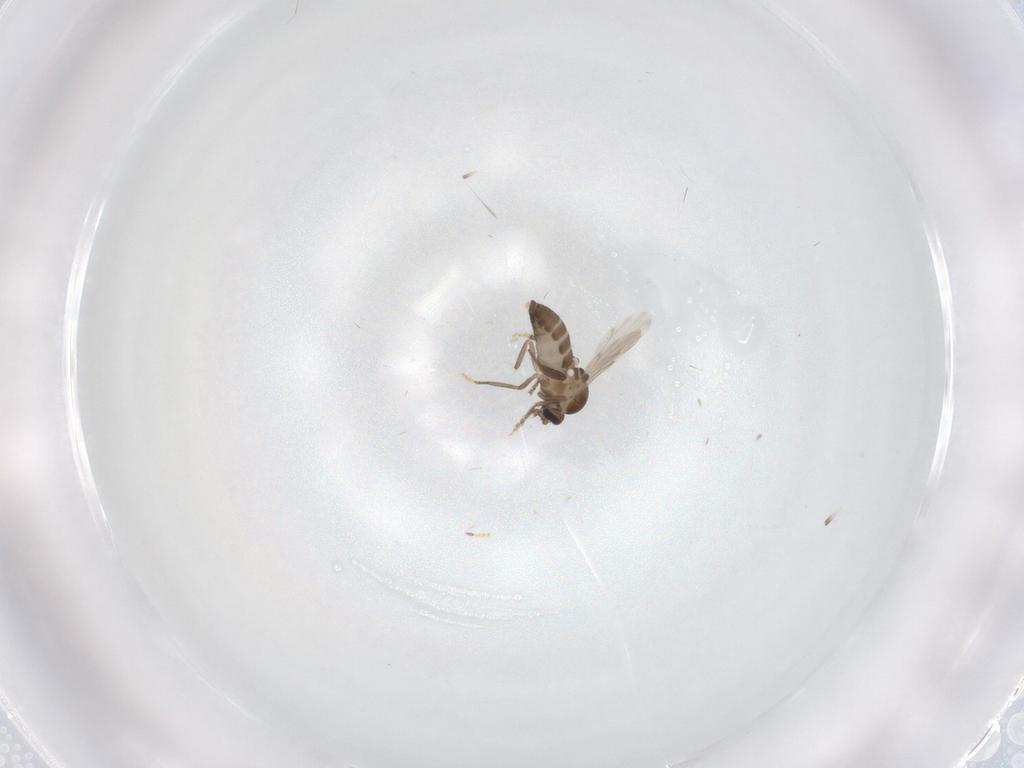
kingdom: Animalia
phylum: Arthropoda
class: Insecta
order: Diptera
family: Ceratopogonidae
